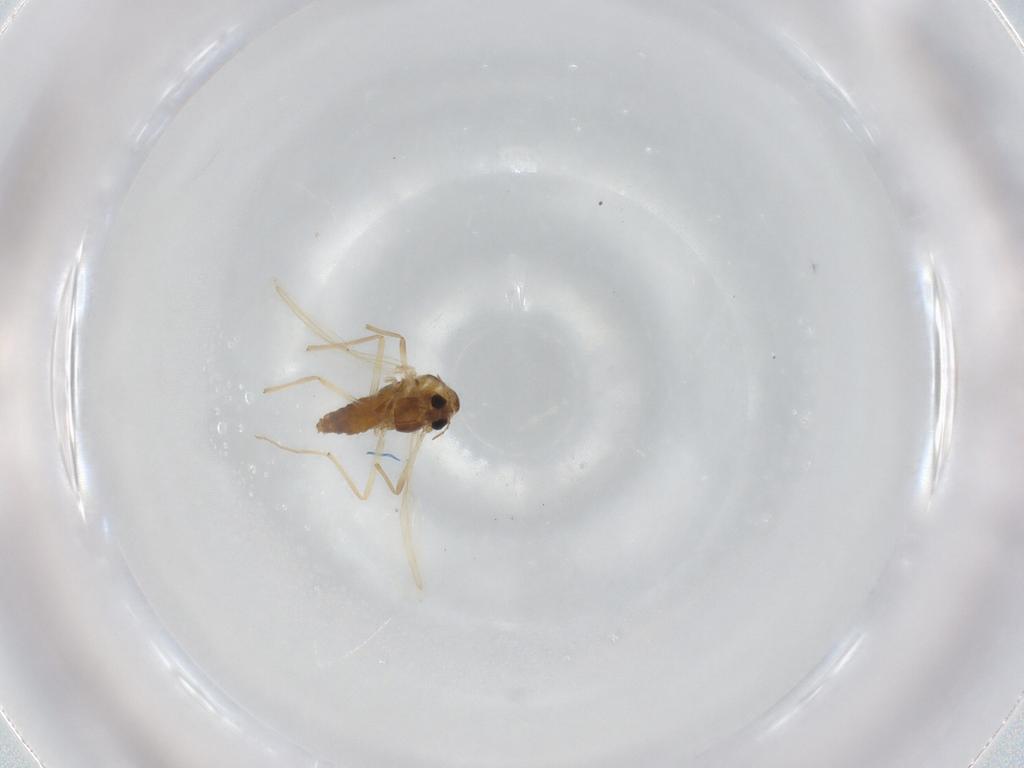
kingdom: Animalia
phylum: Arthropoda
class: Insecta
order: Diptera
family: Chironomidae
